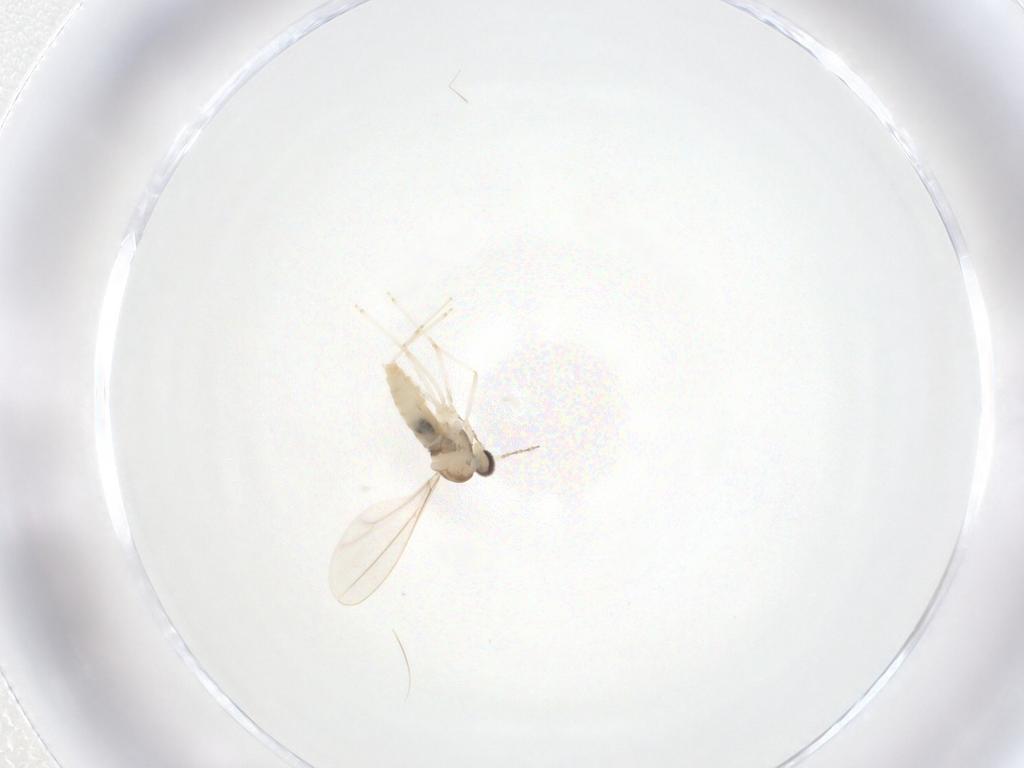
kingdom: Animalia
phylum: Arthropoda
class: Insecta
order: Diptera
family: Cecidomyiidae
